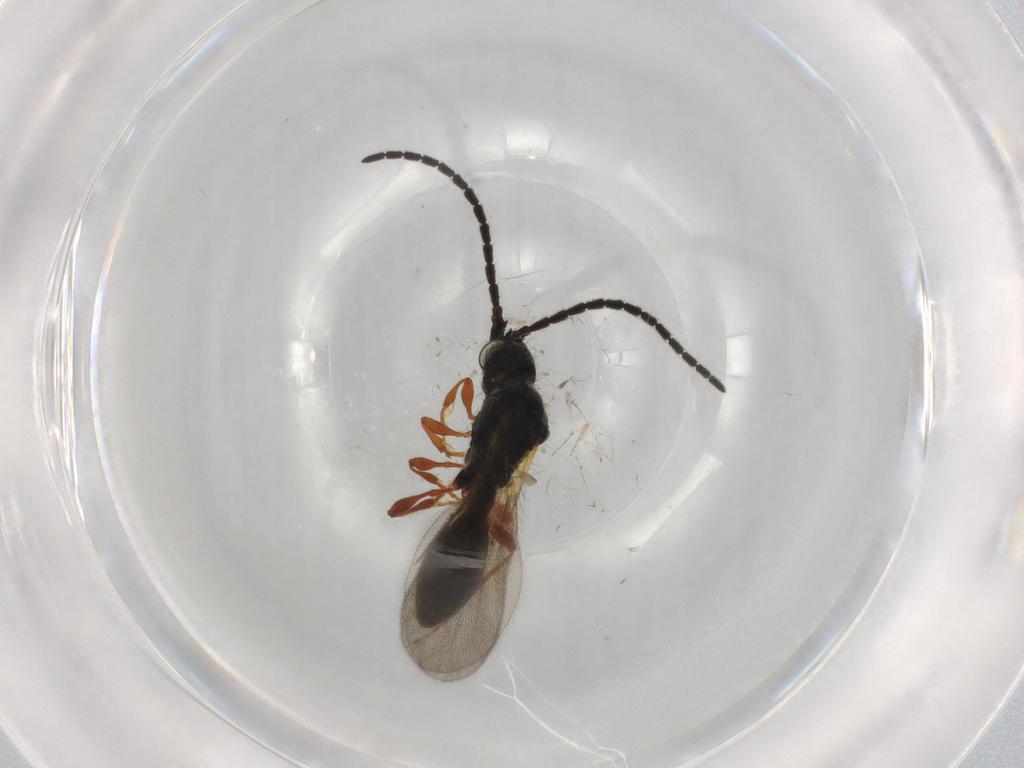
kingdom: Animalia
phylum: Arthropoda
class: Insecta
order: Hymenoptera
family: Diapriidae
